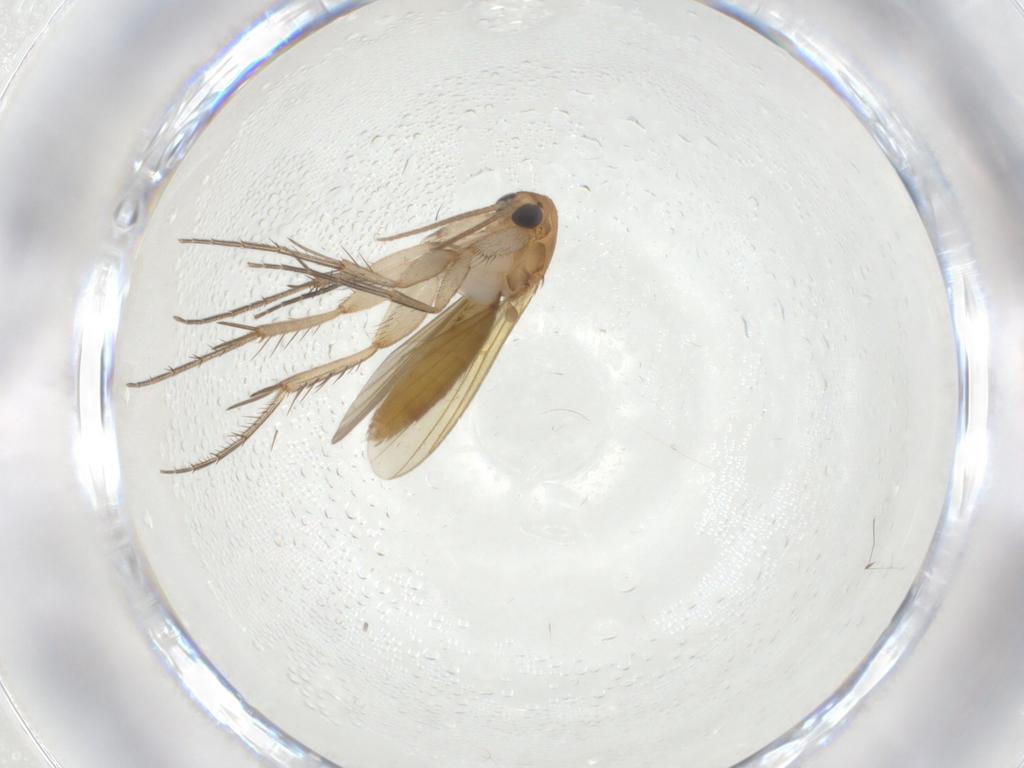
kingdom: Animalia
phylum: Arthropoda
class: Insecta
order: Diptera
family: Mycetophilidae
